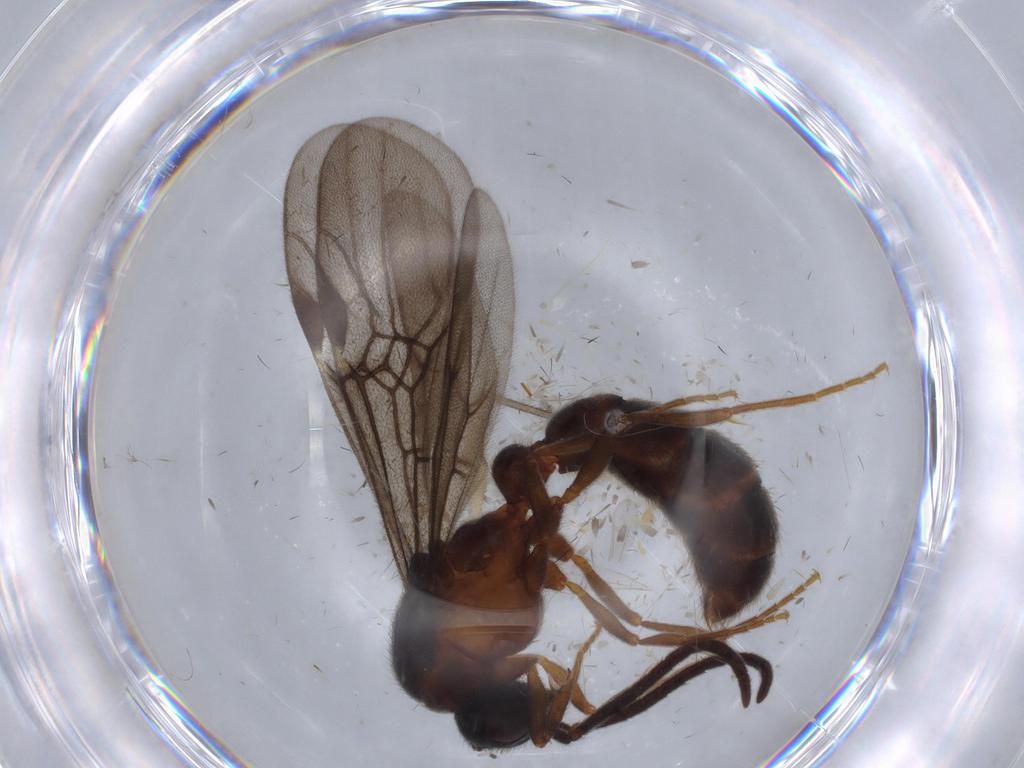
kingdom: Animalia
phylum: Arthropoda
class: Insecta
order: Hymenoptera
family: Formicidae
